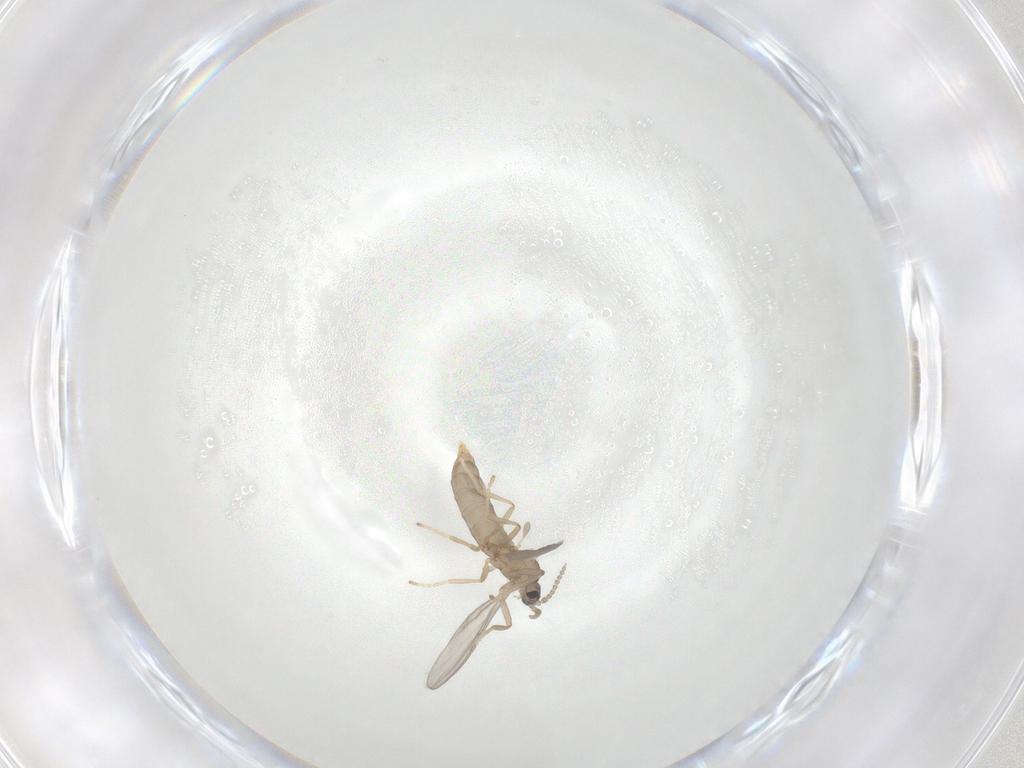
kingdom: Animalia
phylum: Arthropoda
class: Insecta
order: Diptera
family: Cecidomyiidae
